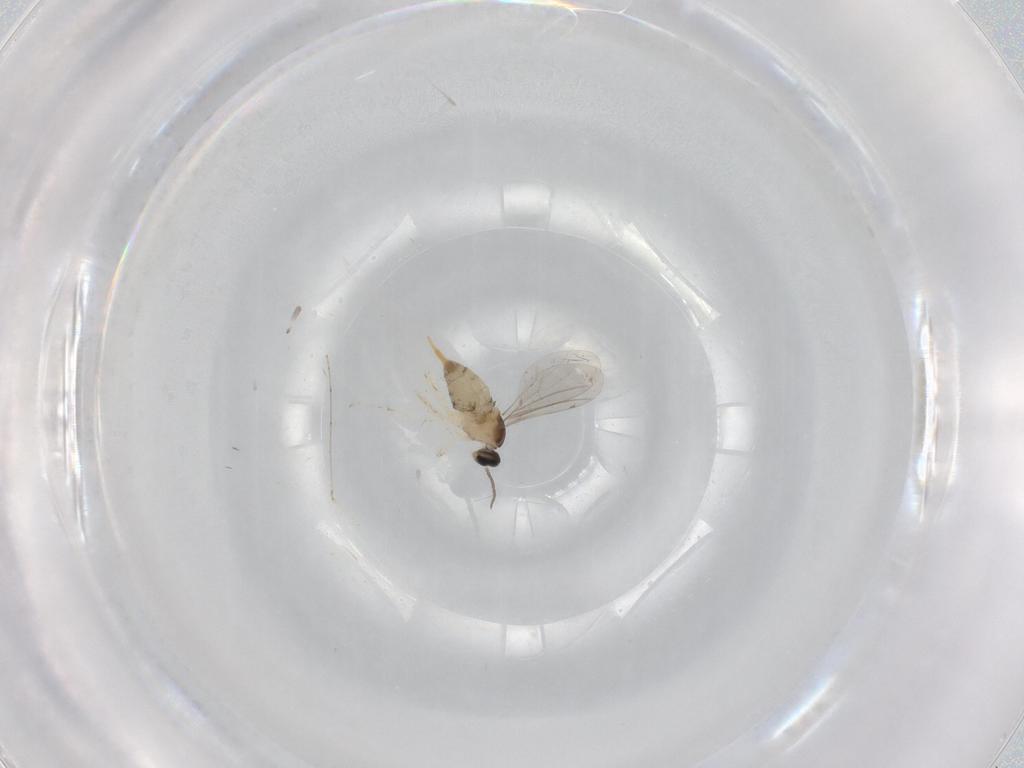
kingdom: Animalia
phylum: Arthropoda
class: Insecta
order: Diptera
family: Cecidomyiidae
